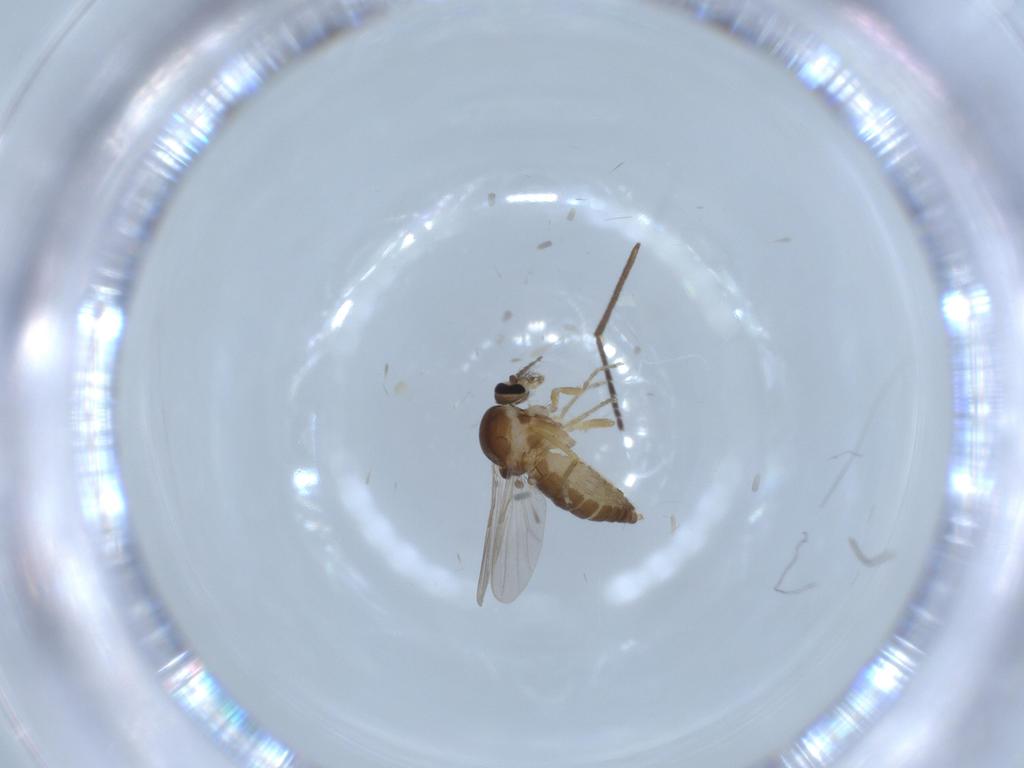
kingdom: Animalia
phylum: Arthropoda
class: Insecta
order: Diptera
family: Ceratopogonidae
